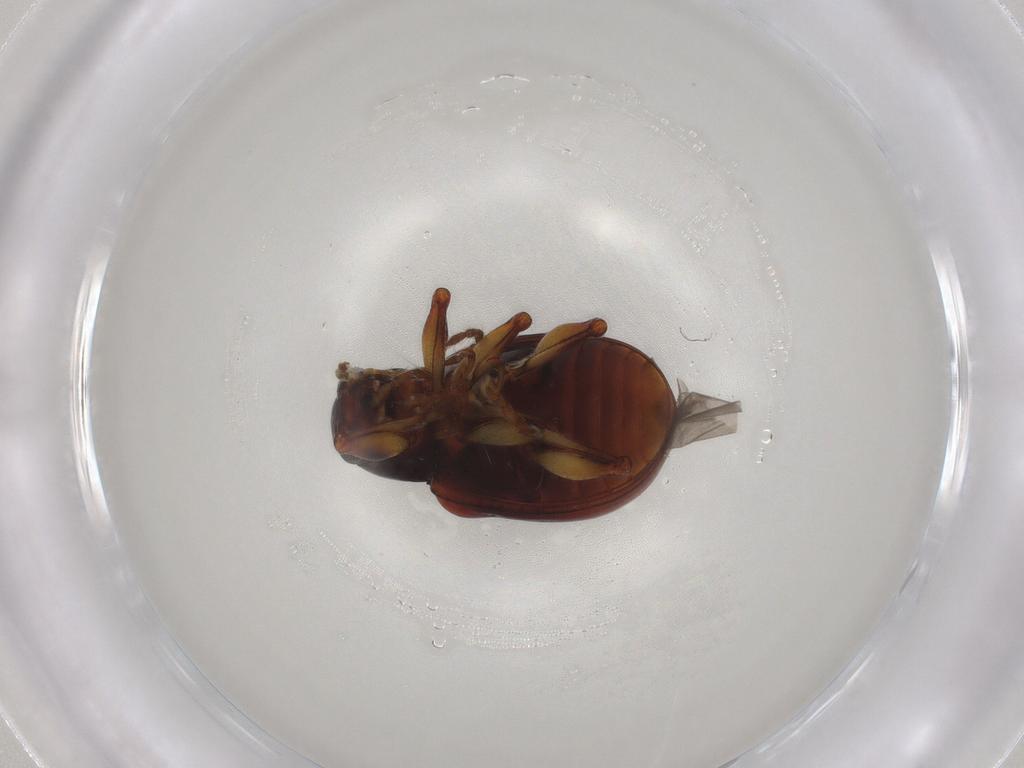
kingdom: Animalia
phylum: Arthropoda
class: Insecta
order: Coleoptera
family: Chrysomelidae
